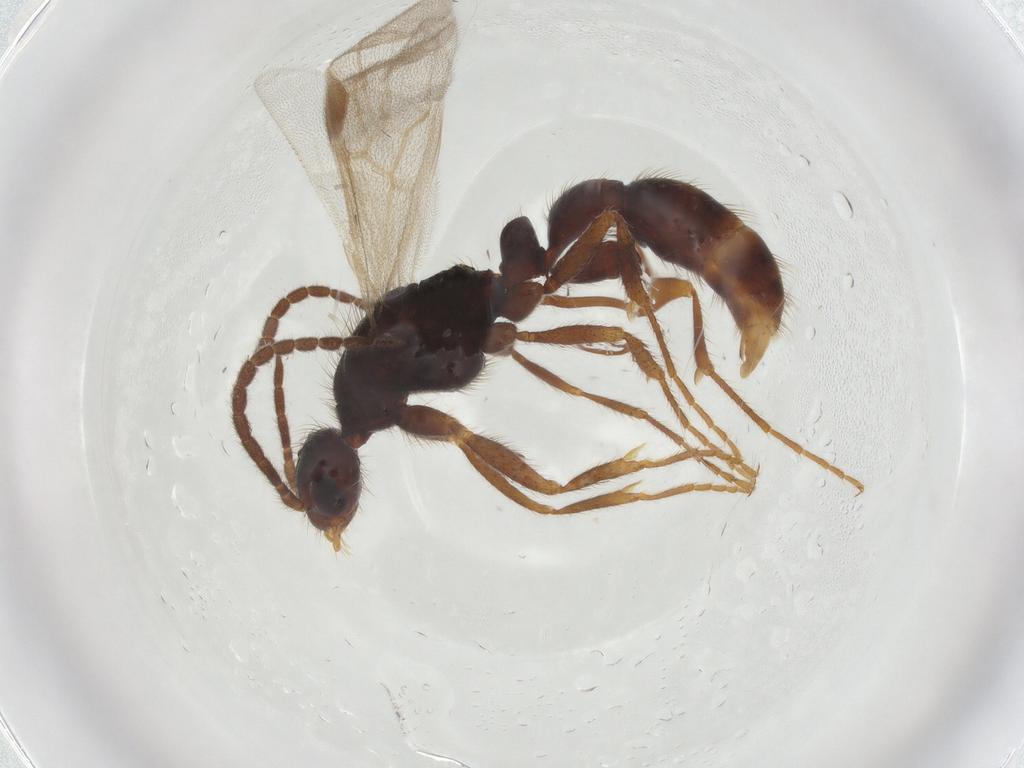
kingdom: Animalia
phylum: Arthropoda
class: Insecta
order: Hymenoptera
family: Formicidae
